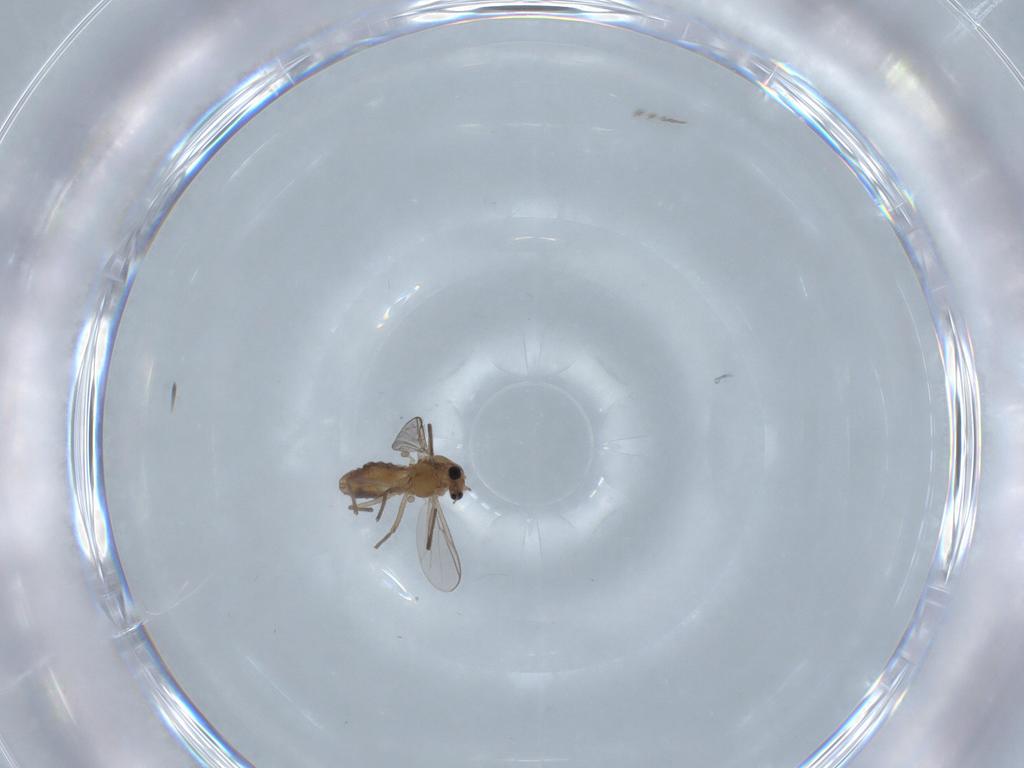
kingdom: Animalia
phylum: Arthropoda
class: Insecta
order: Diptera
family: Chironomidae
